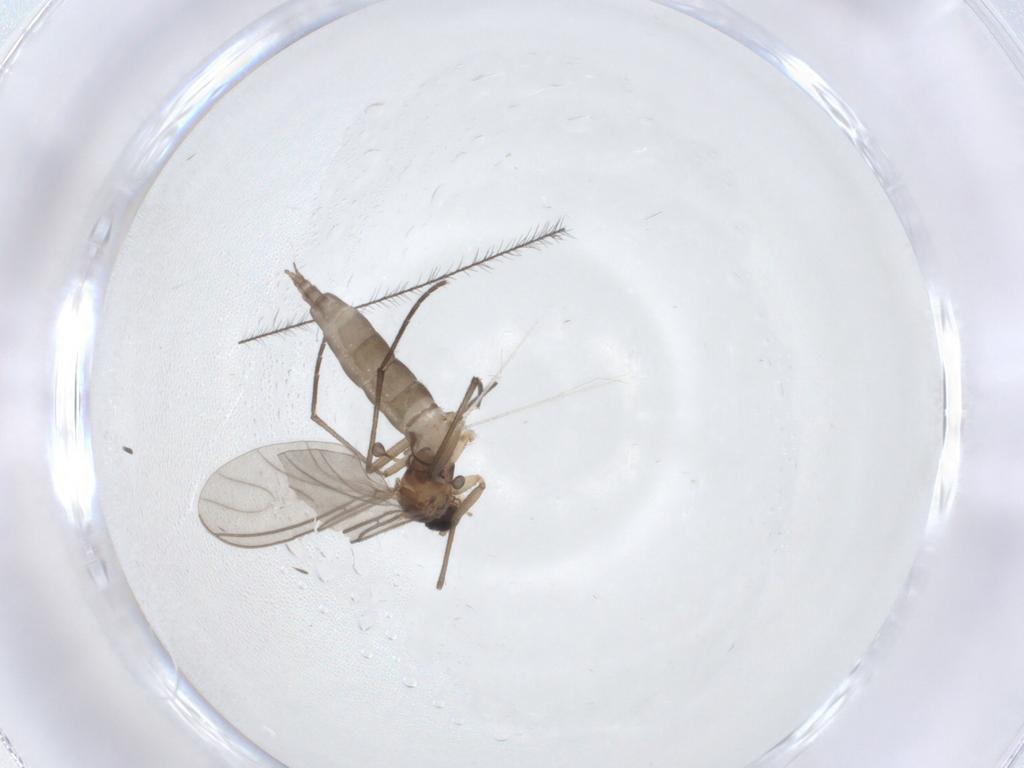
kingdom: Animalia
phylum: Arthropoda
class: Insecta
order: Diptera
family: Sciaridae
